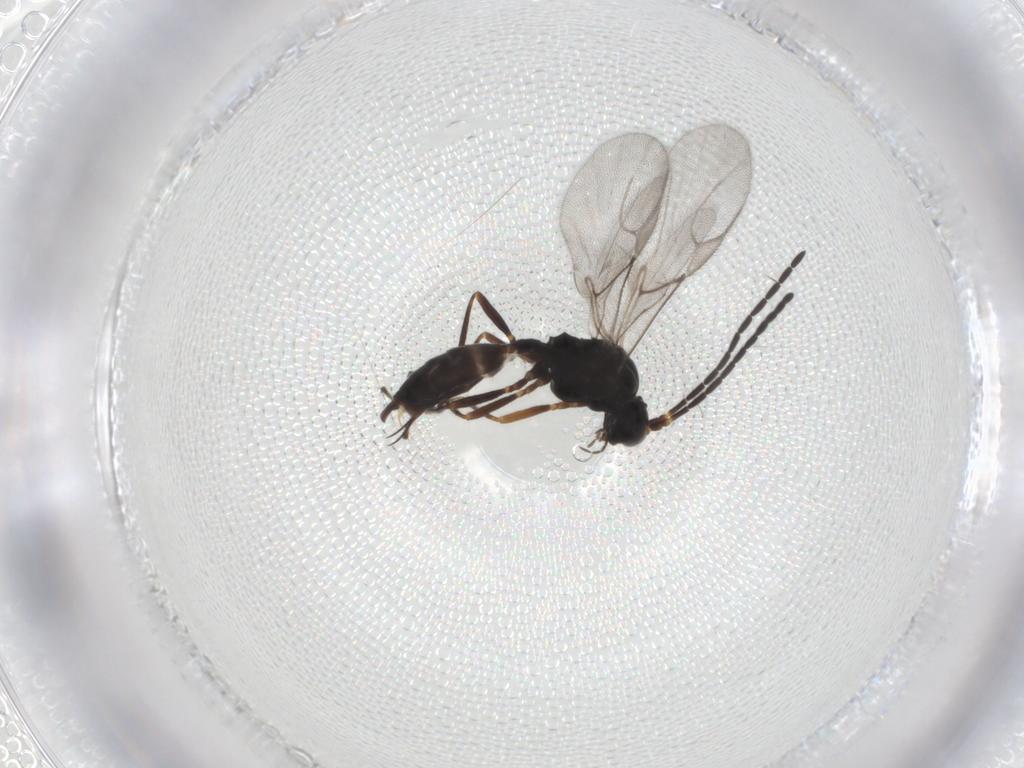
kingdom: Animalia
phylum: Arthropoda
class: Insecta
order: Hymenoptera
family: Braconidae
